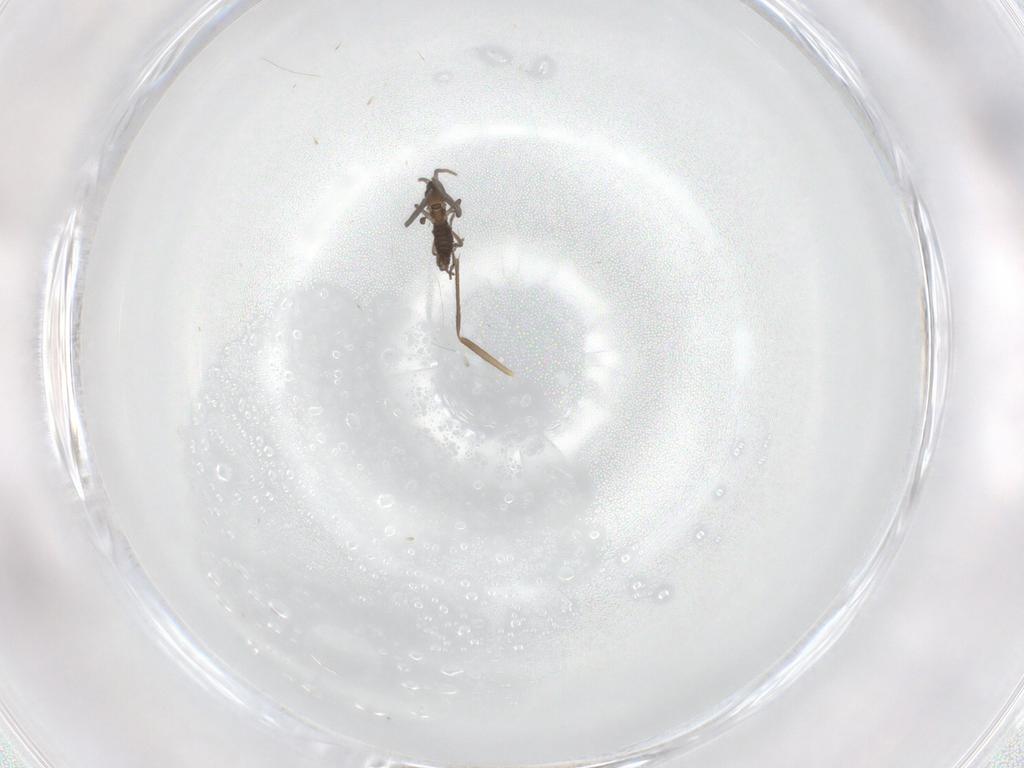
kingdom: Animalia
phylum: Arthropoda
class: Insecta
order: Diptera
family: Chironomidae
